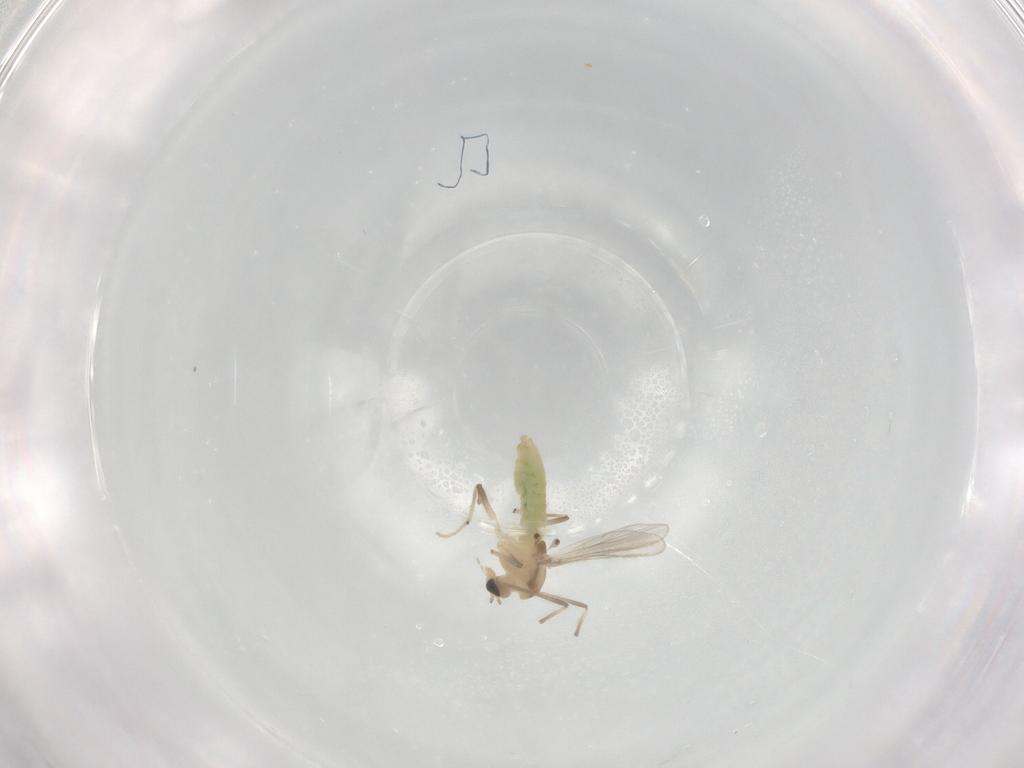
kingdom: Animalia
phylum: Arthropoda
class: Insecta
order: Diptera
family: Chironomidae
